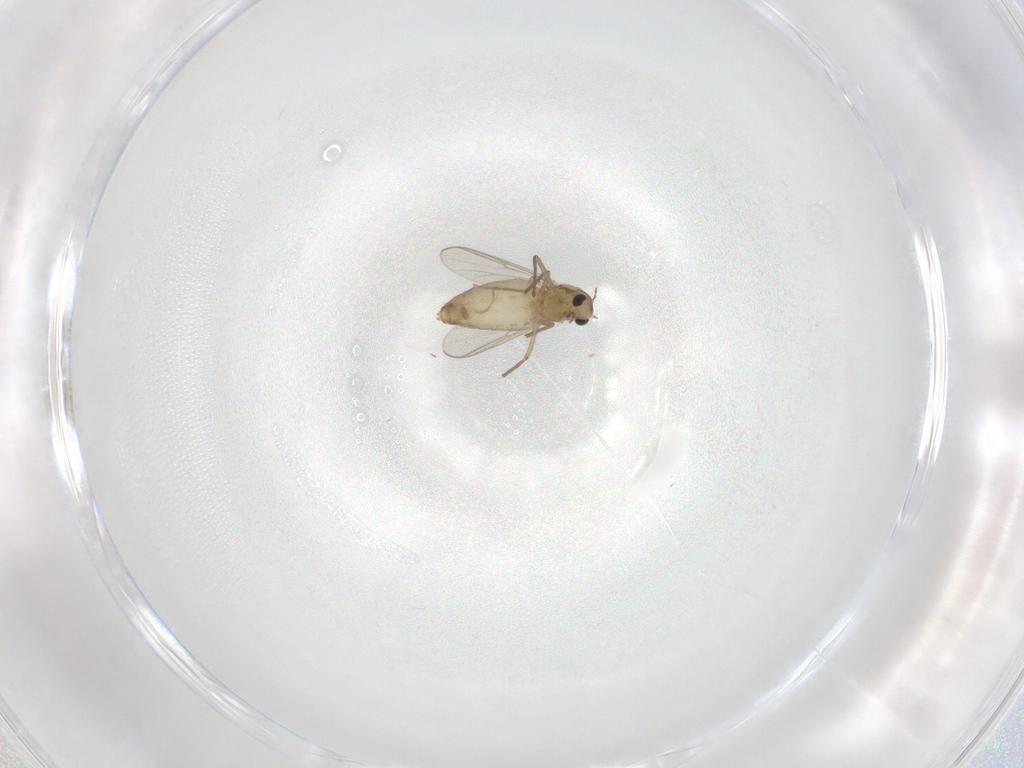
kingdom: Animalia
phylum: Arthropoda
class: Insecta
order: Diptera
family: Chironomidae
